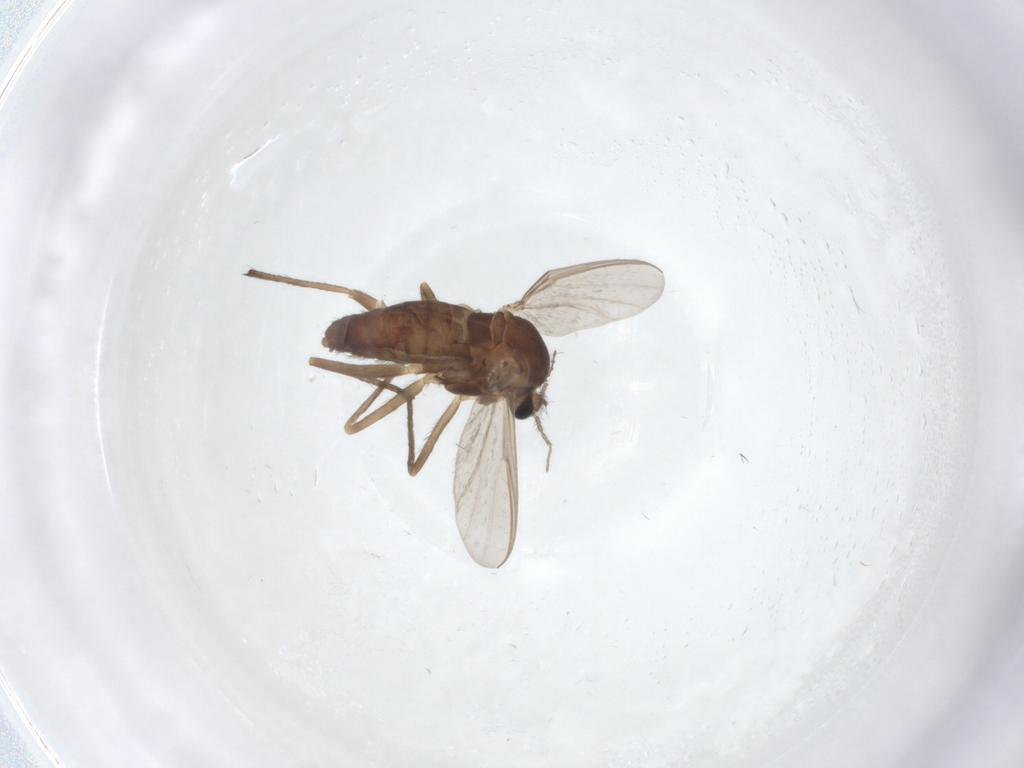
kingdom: Animalia
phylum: Arthropoda
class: Insecta
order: Diptera
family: Chironomidae
